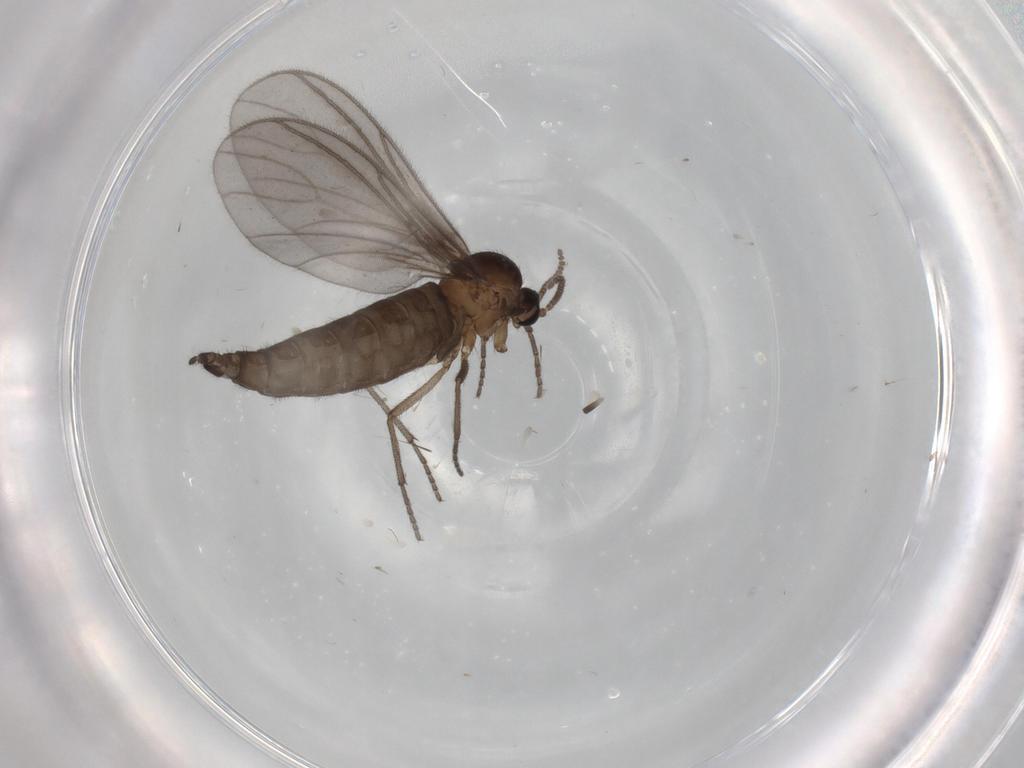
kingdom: Animalia
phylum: Arthropoda
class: Insecta
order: Diptera
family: Sciaridae
